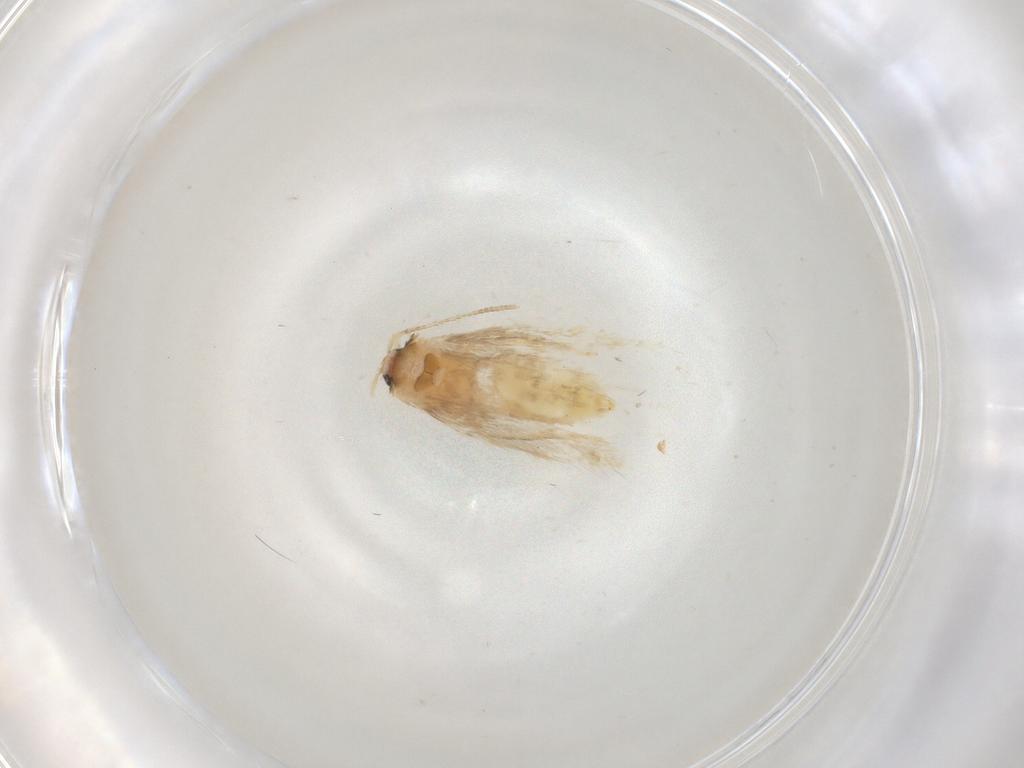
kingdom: Animalia
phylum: Arthropoda
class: Insecta
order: Lepidoptera
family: Nepticulidae
